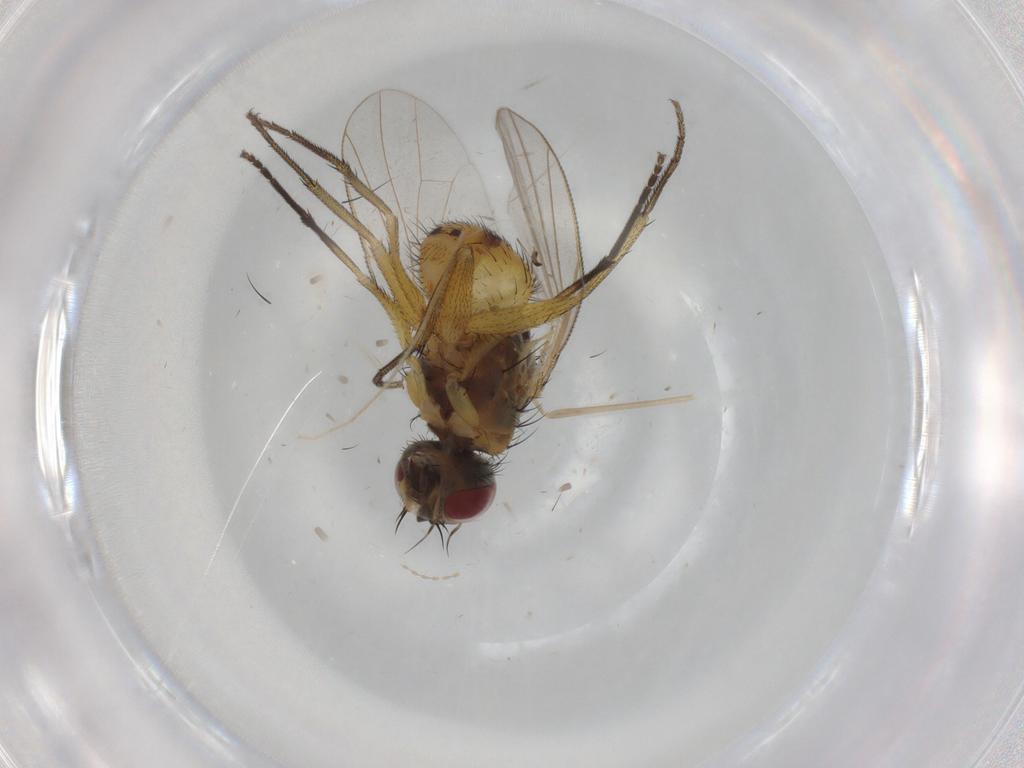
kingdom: Animalia
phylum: Arthropoda
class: Insecta
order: Diptera
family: Muscidae
